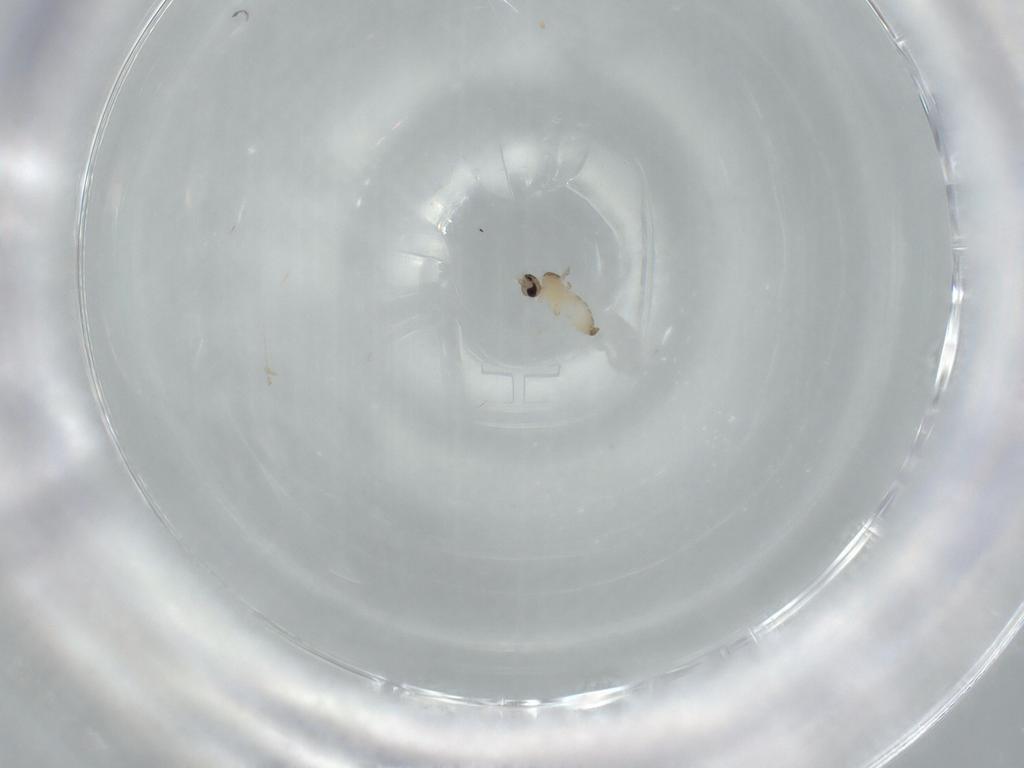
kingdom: Animalia
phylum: Arthropoda
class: Insecta
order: Diptera
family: Cecidomyiidae
